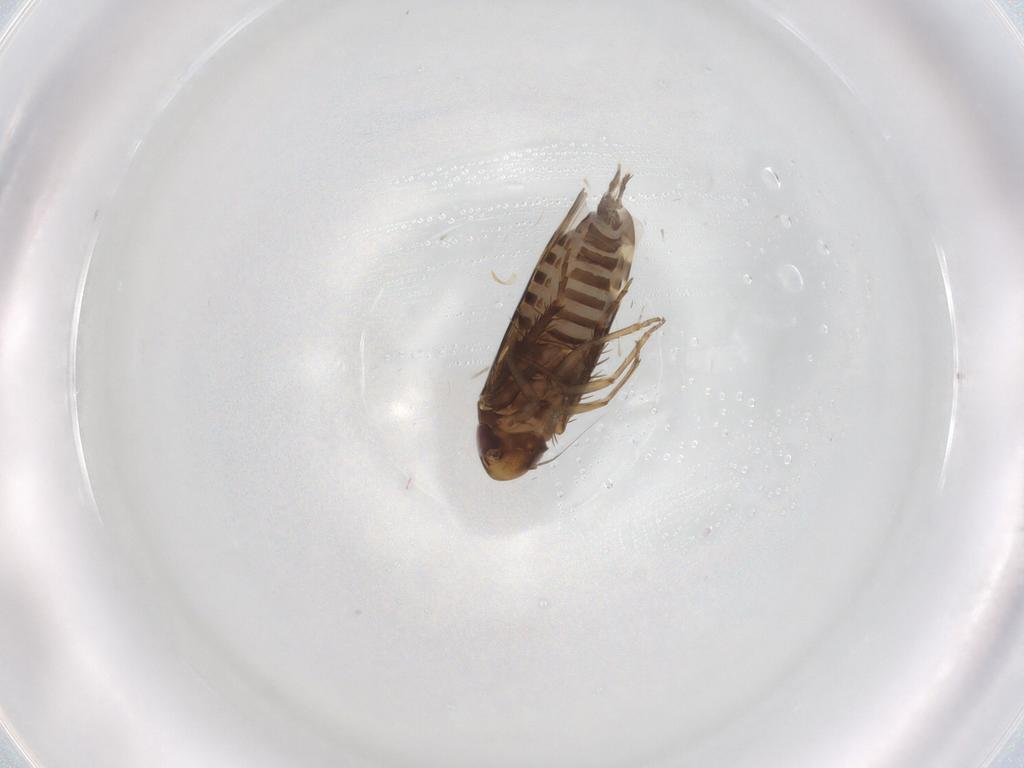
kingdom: Animalia
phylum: Arthropoda
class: Insecta
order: Hemiptera
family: Cicadellidae
